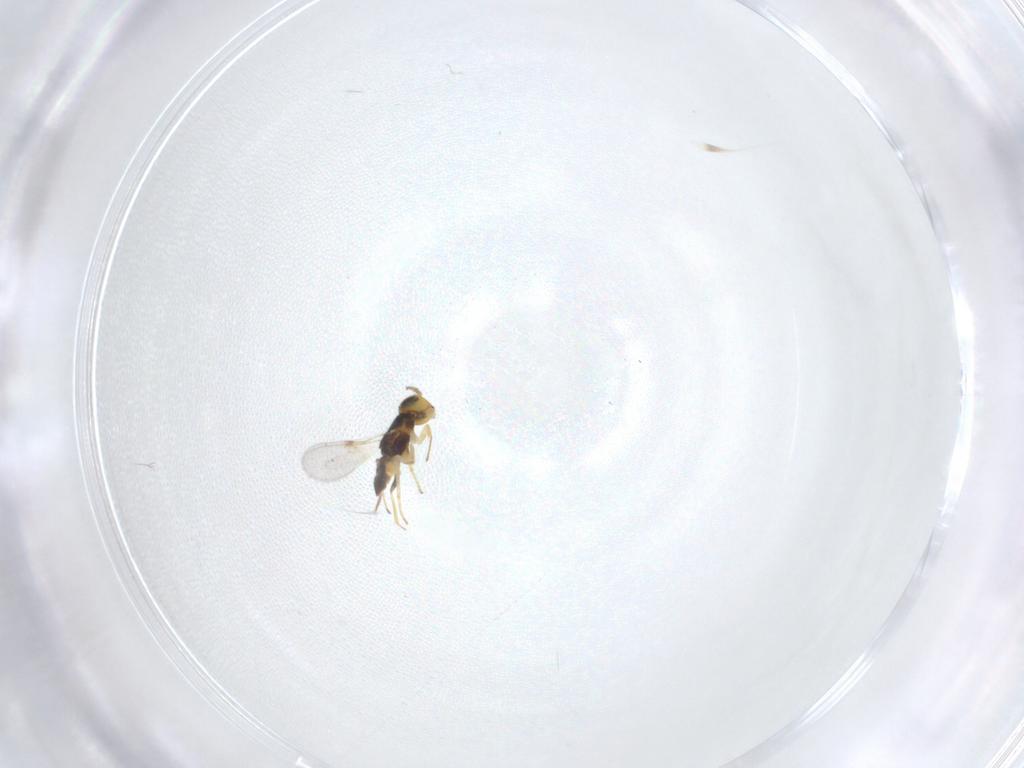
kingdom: Animalia
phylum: Arthropoda
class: Insecta
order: Hymenoptera
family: Encyrtidae
